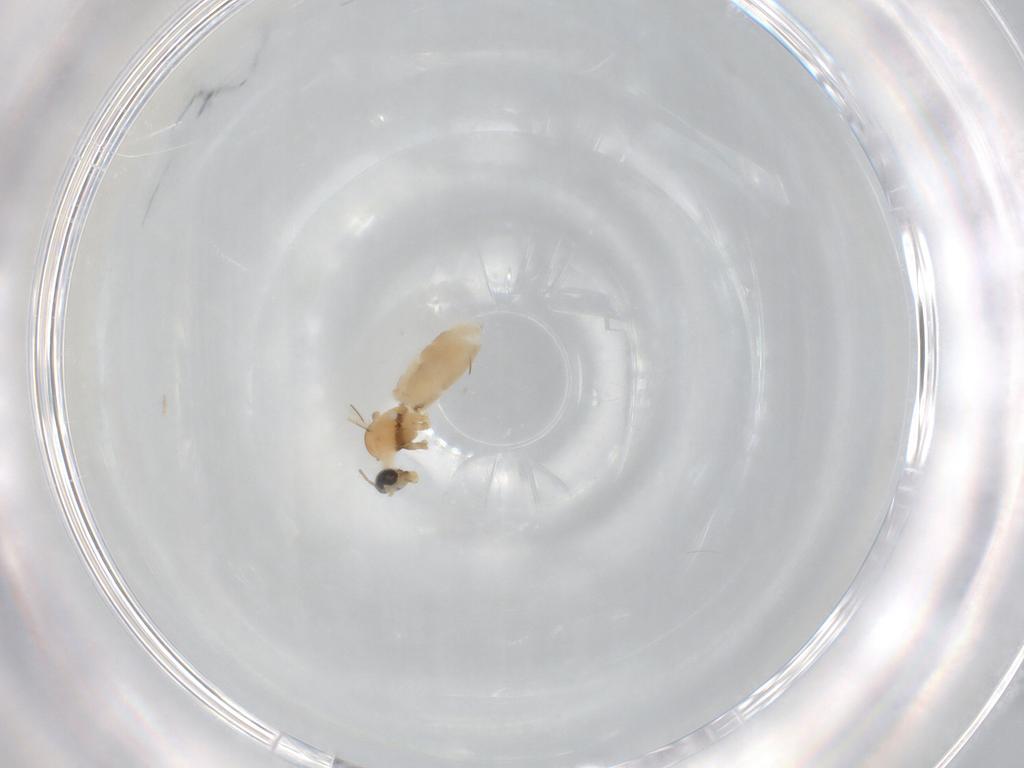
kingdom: Animalia
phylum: Arthropoda
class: Insecta
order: Diptera
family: Cecidomyiidae
